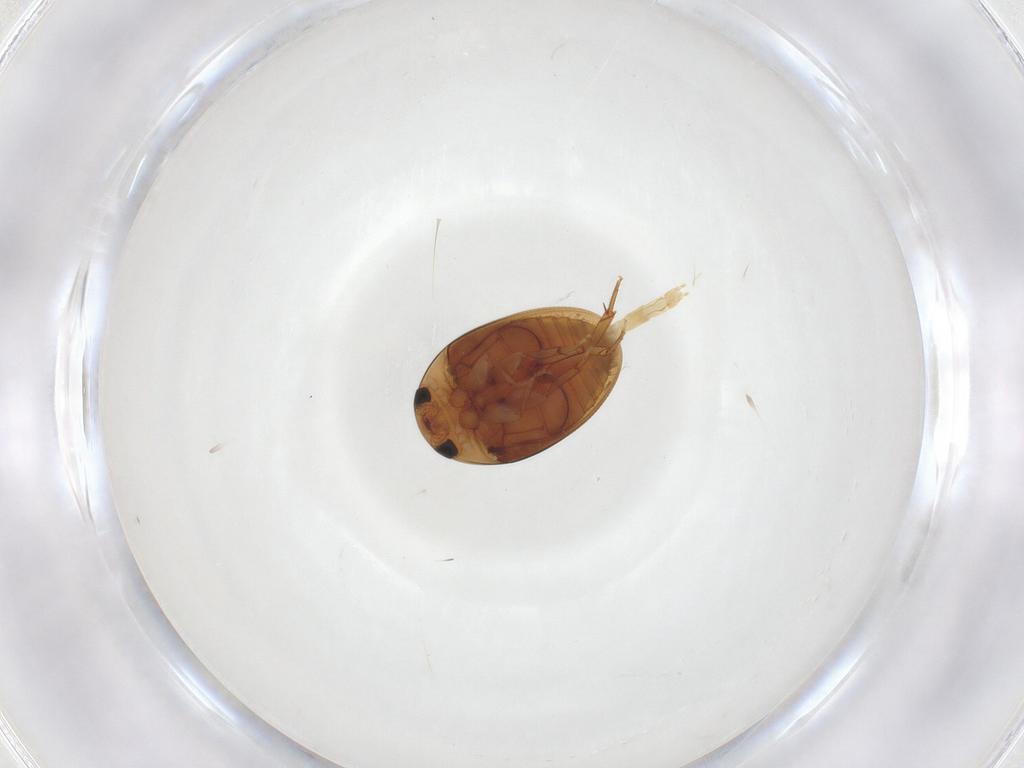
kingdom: Animalia
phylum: Arthropoda
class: Insecta
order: Coleoptera
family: Phalacridae
